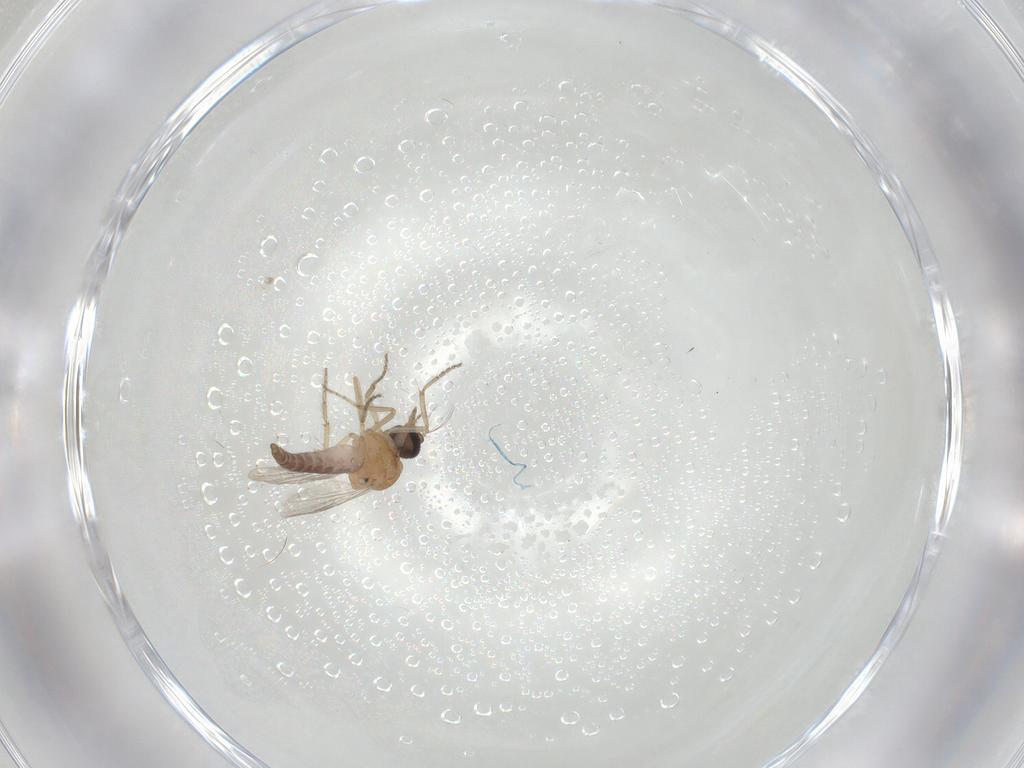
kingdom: Animalia
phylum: Arthropoda
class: Insecta
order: Diptera
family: Ceratopogonidae
